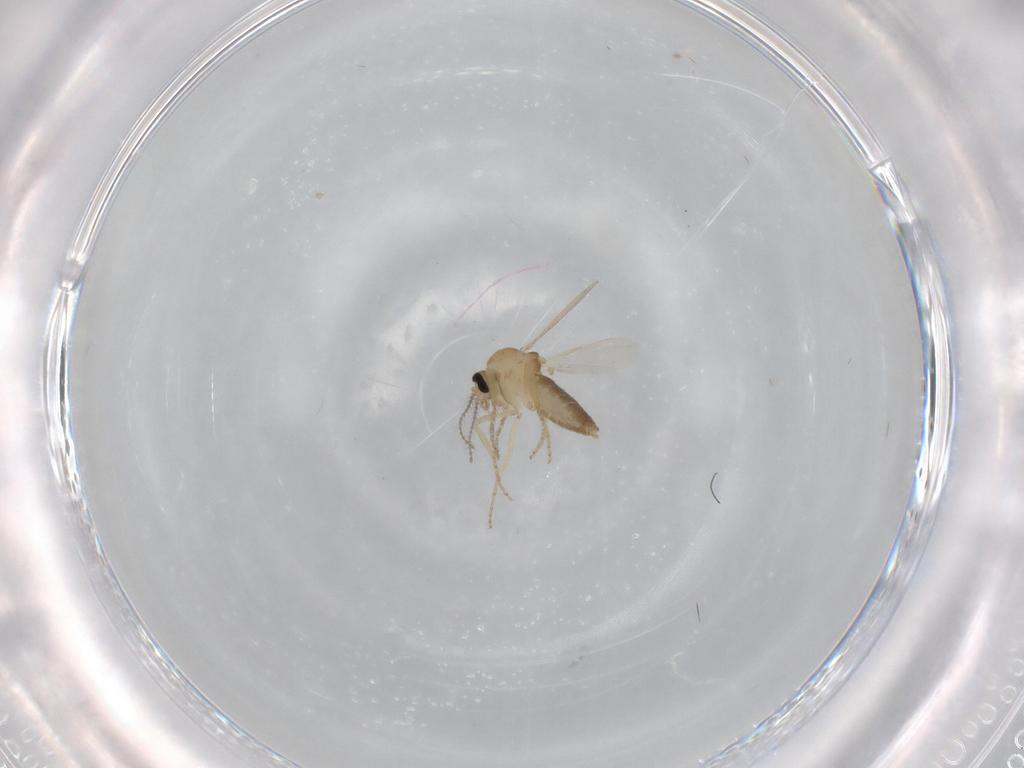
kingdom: Animalia
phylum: Arthropoda
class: Insecta
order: Diptera
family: Ceratopogonidae
